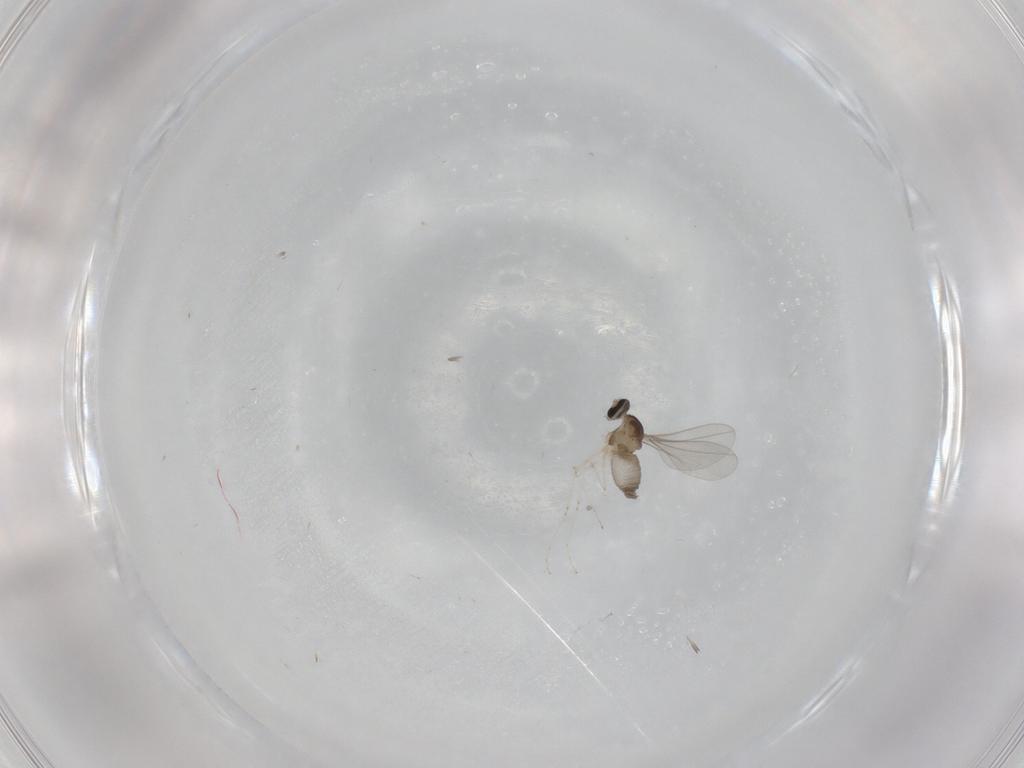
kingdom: Animalia
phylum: Arthropoda
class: Insecta
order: Diptera
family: Cecidomyiidae
